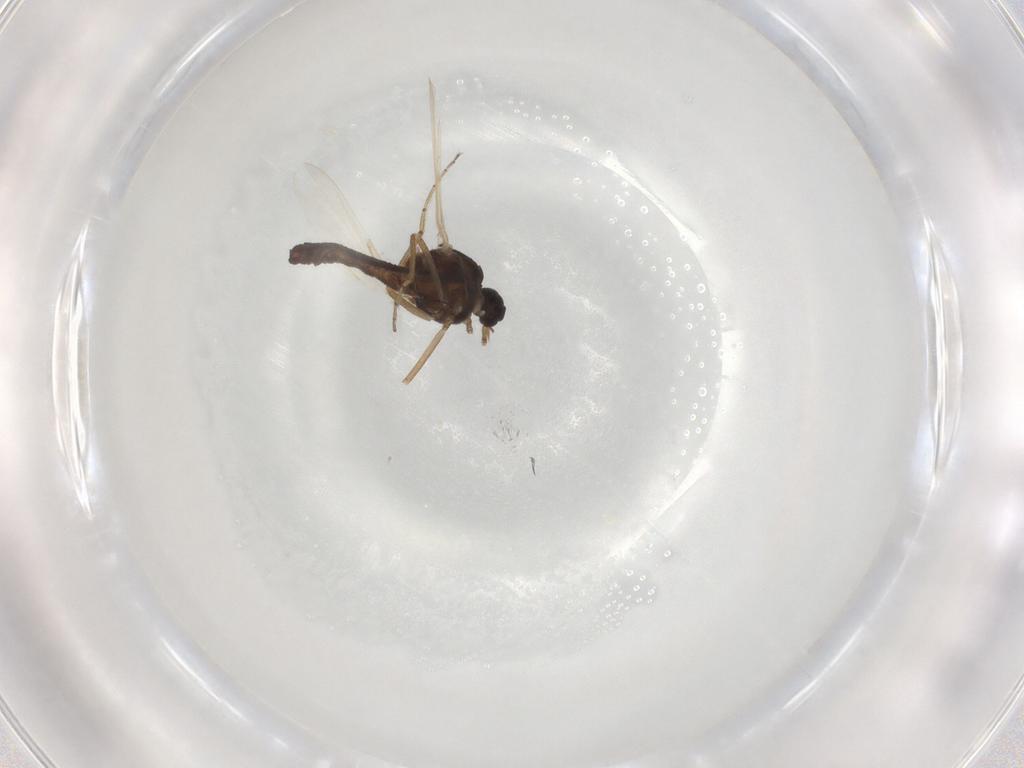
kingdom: Animalia
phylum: Arthropoda
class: Insecta
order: Diptera
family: Ceratopogonidae
